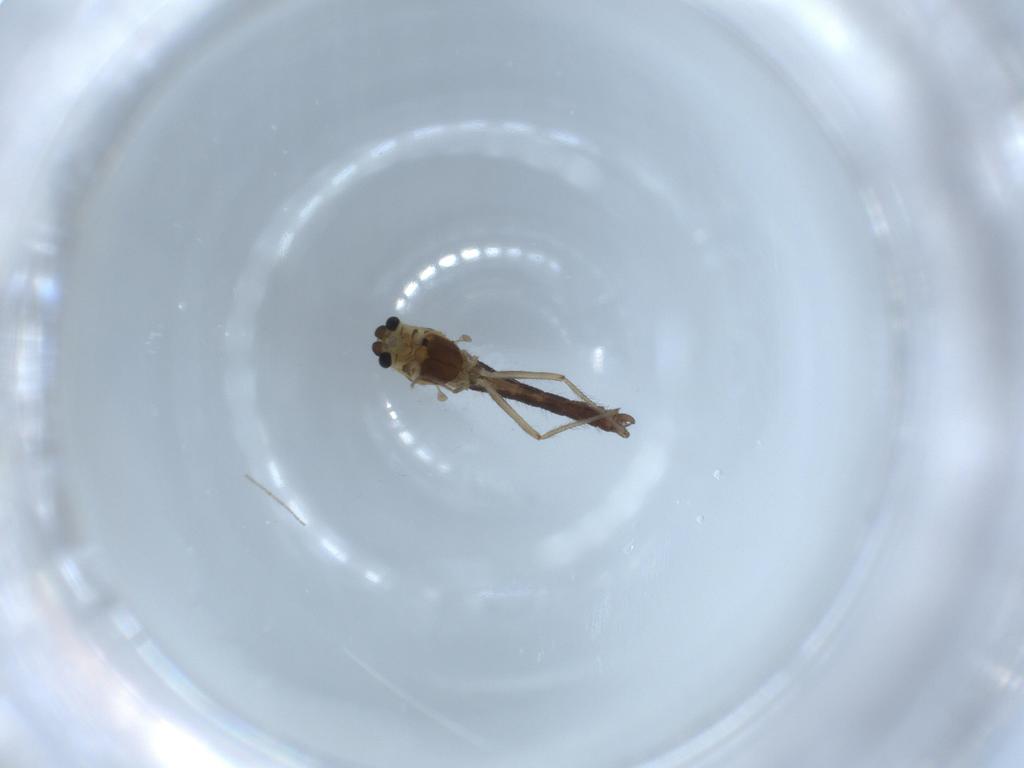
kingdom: Animalia
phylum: Arthropoda
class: Insecta
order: Diptera
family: Chironomidae
